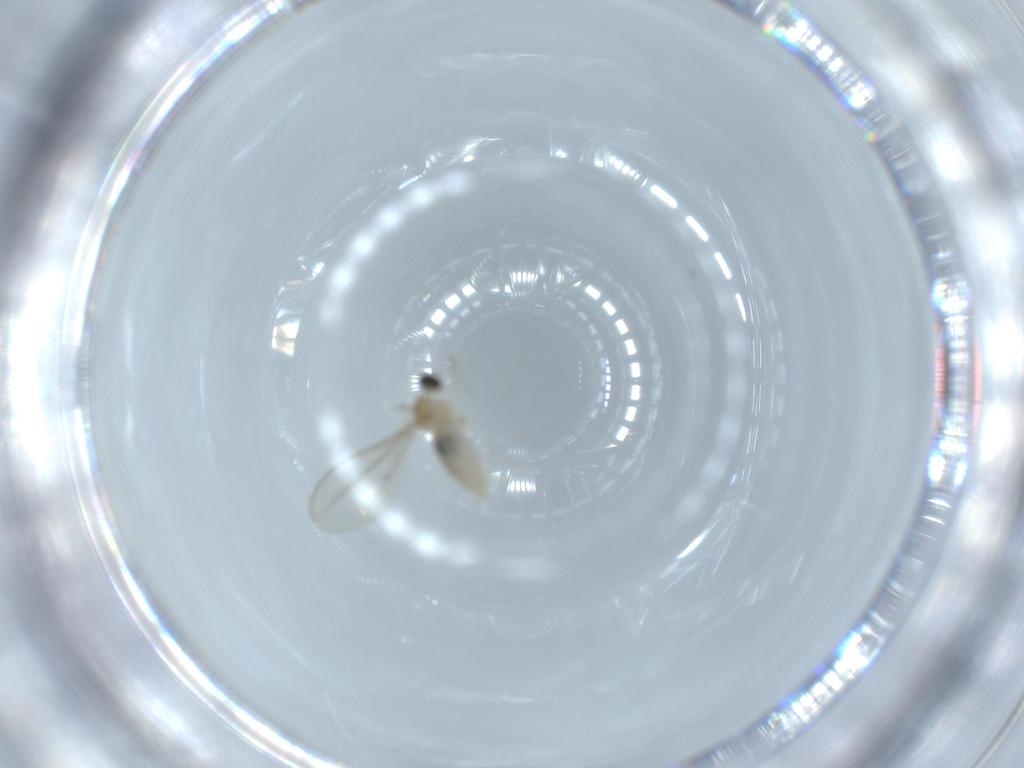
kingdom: Animalia
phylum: Arthropoda
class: Insecta
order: Diptera
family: Cecidomyiidae
